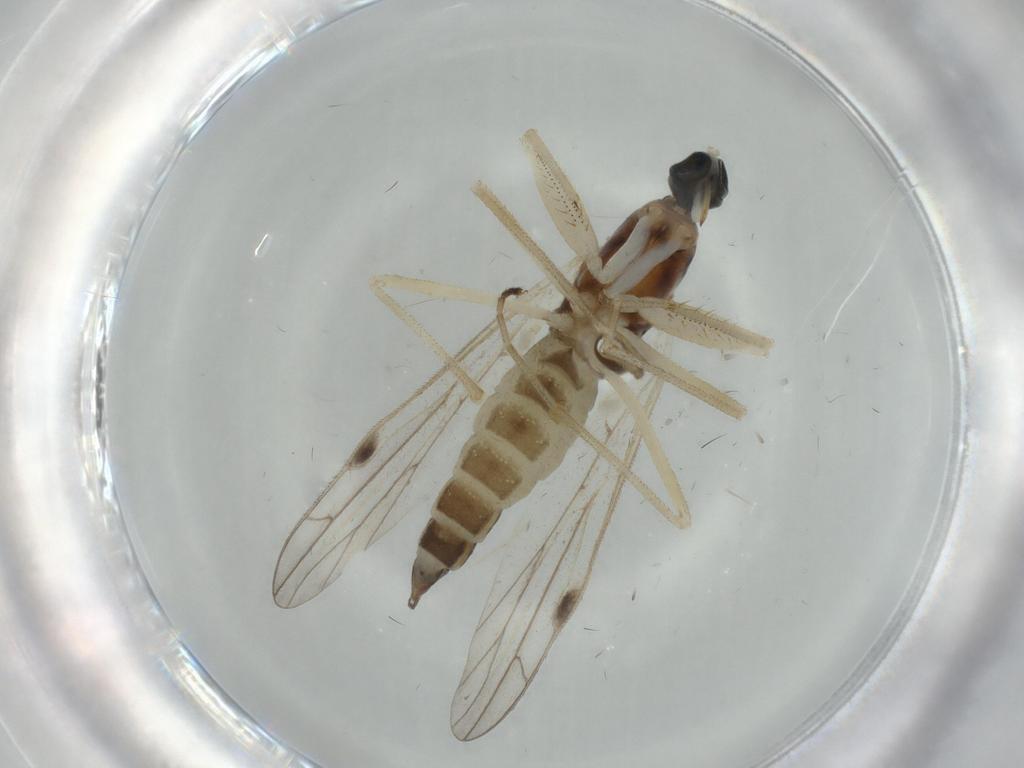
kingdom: Animalia
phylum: Arthropoda
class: Insecta
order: Diptera
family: Empididae
